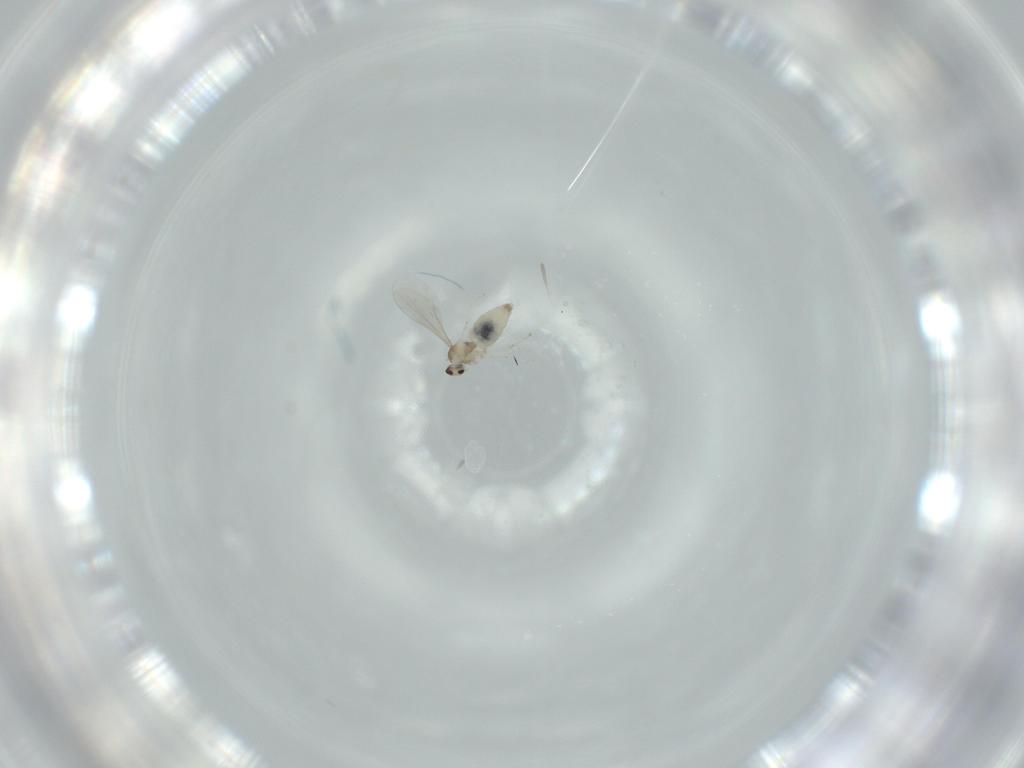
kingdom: Animalia
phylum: Arthropoda
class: Insecta
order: Diptera
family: Cecidomyiidae
